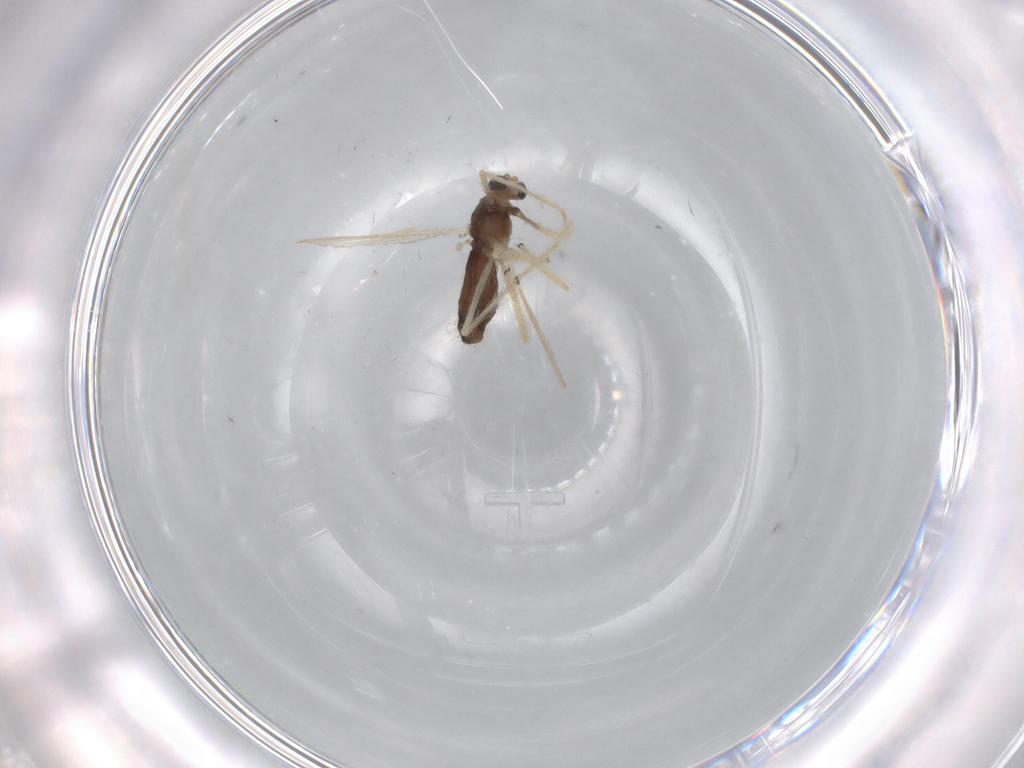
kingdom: Animalia
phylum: Arthropoda
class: Insecta
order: Diptera
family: Chironomidae
